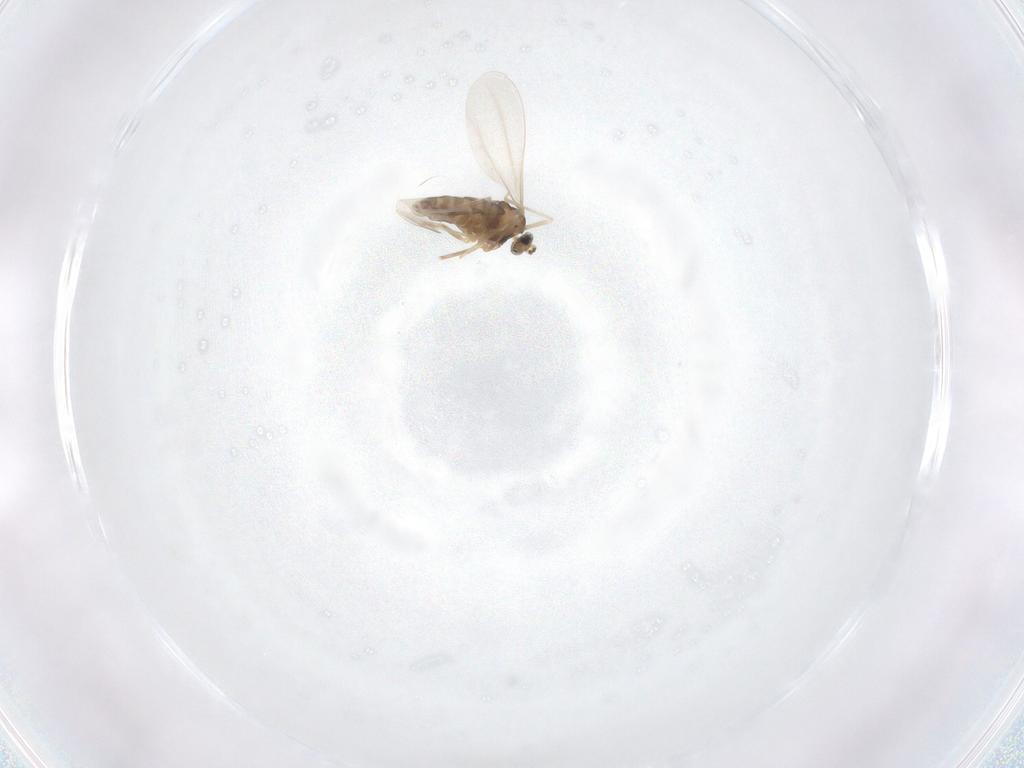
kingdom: Animalia
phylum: Arthropoda
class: Insecta
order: Diptera
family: Cecidomyiidae
